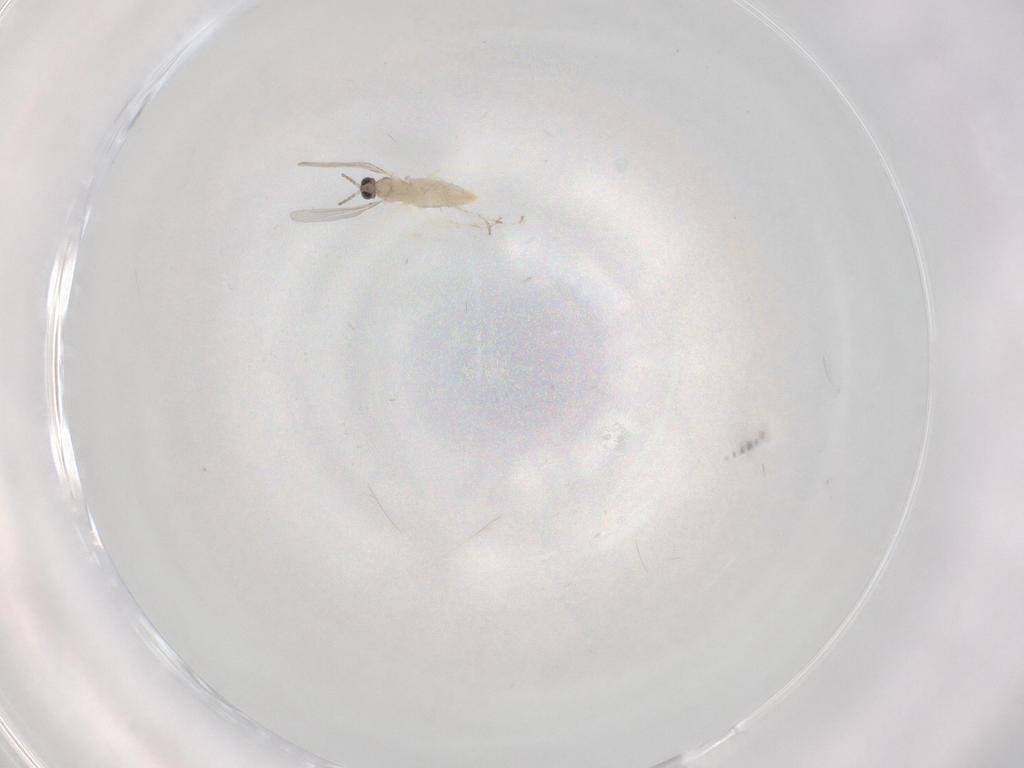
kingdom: Animalia
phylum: Arthropoda
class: Insecta
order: Diptera
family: Cecidomyiidae
